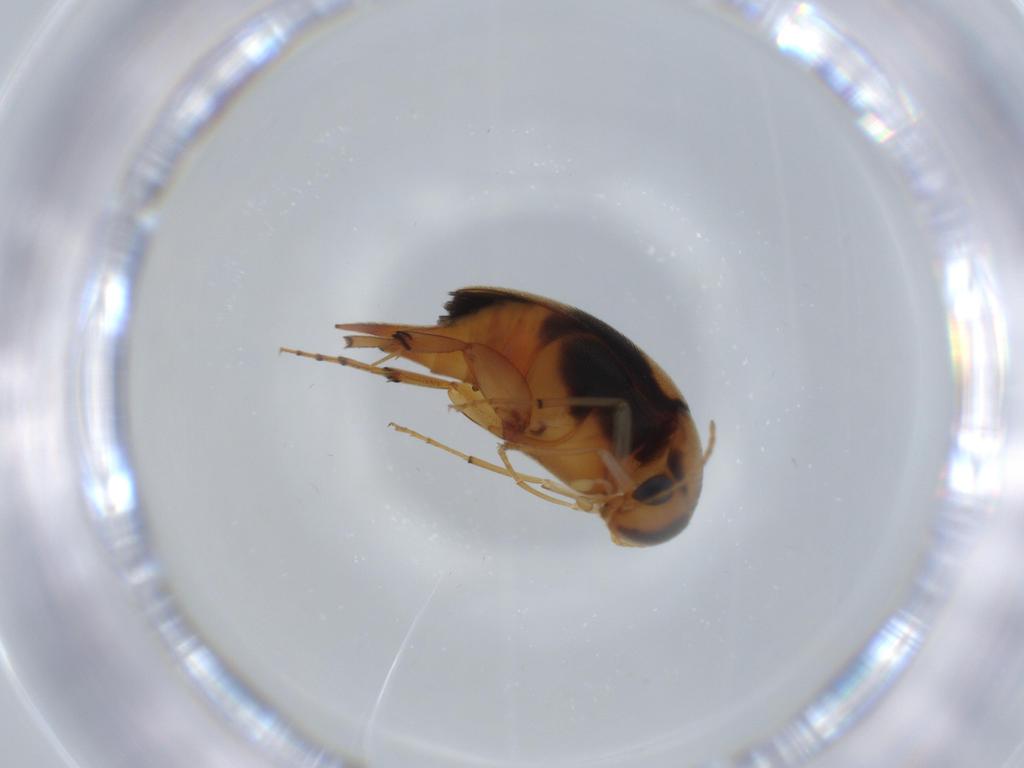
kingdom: Animalia
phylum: Arthropoda
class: Insecta
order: Coleoptera
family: Mordellidae
